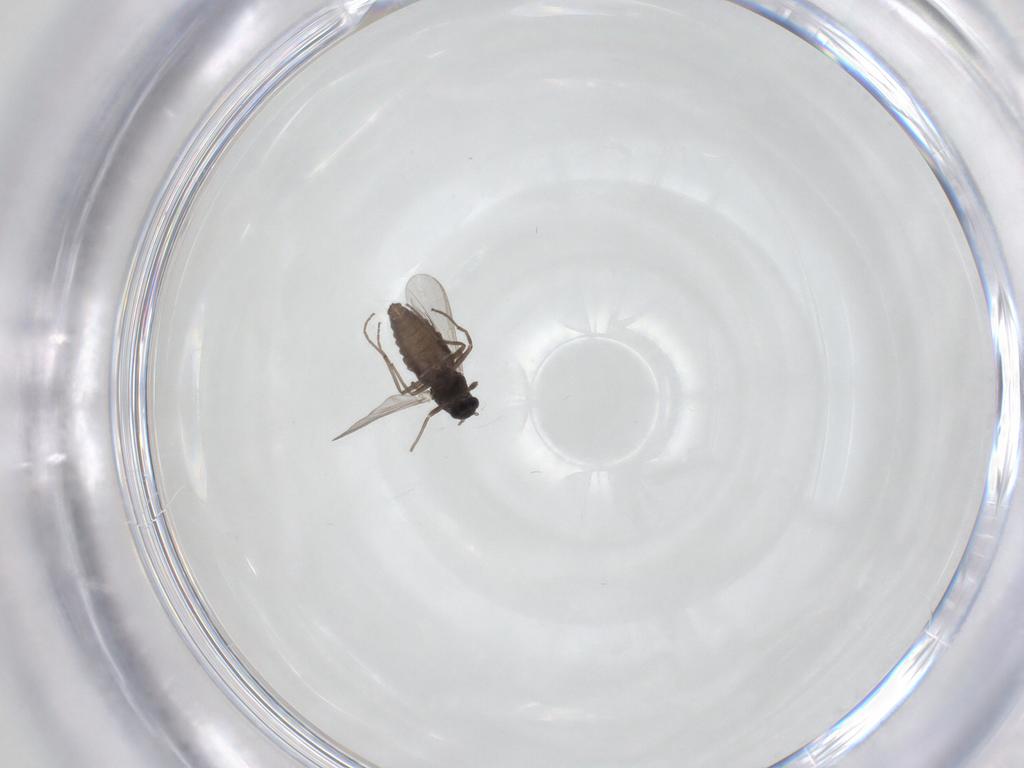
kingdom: Animalia
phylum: Arthropoda
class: Insecta
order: Diptera
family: Chironomidae
